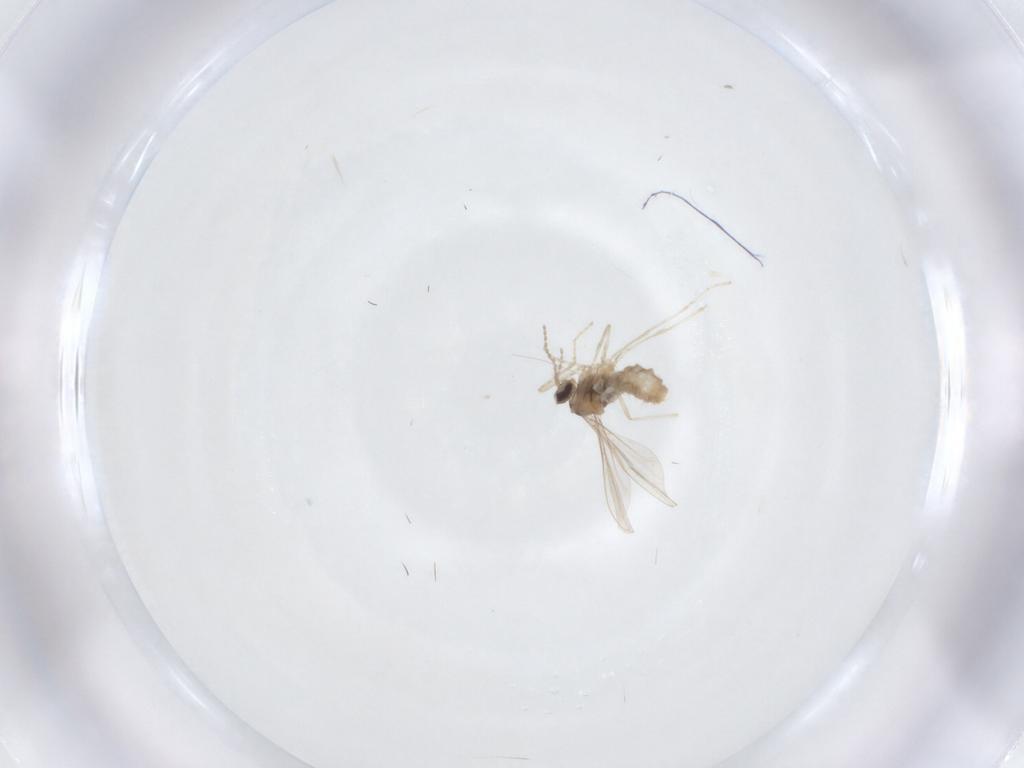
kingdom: Animalia
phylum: Arthropoda
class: Insecta
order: Diptera
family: Cecidomyiidae
